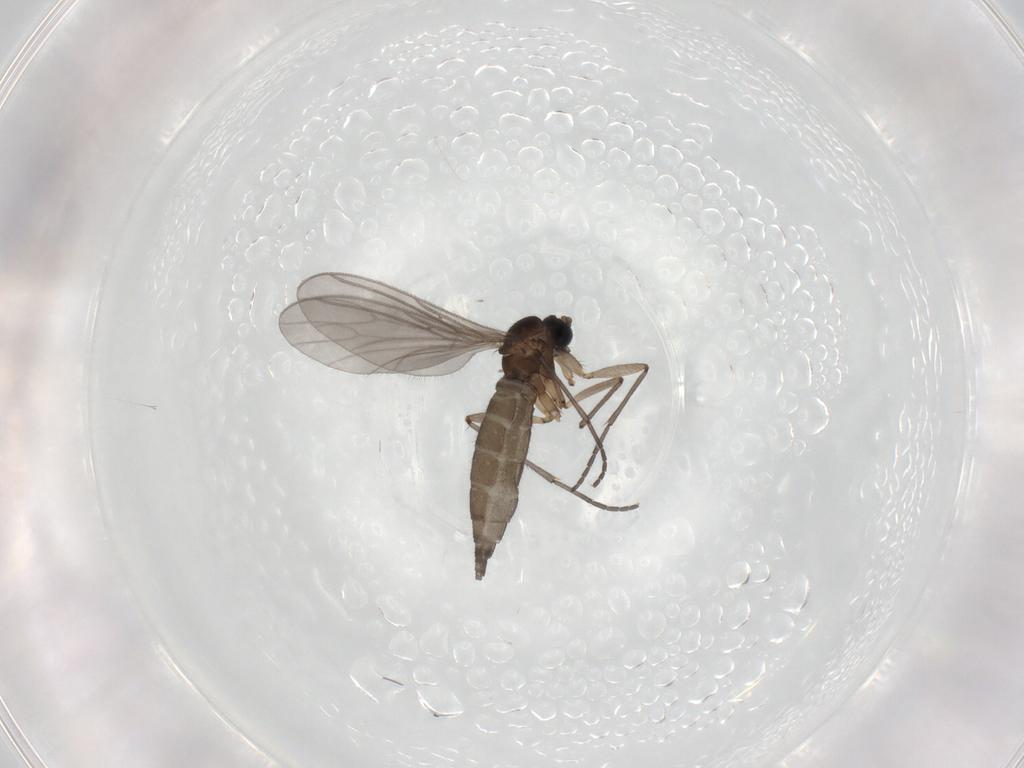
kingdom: Animalia
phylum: Arthropoda
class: Insecta
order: Diptera
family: Sciaridae
